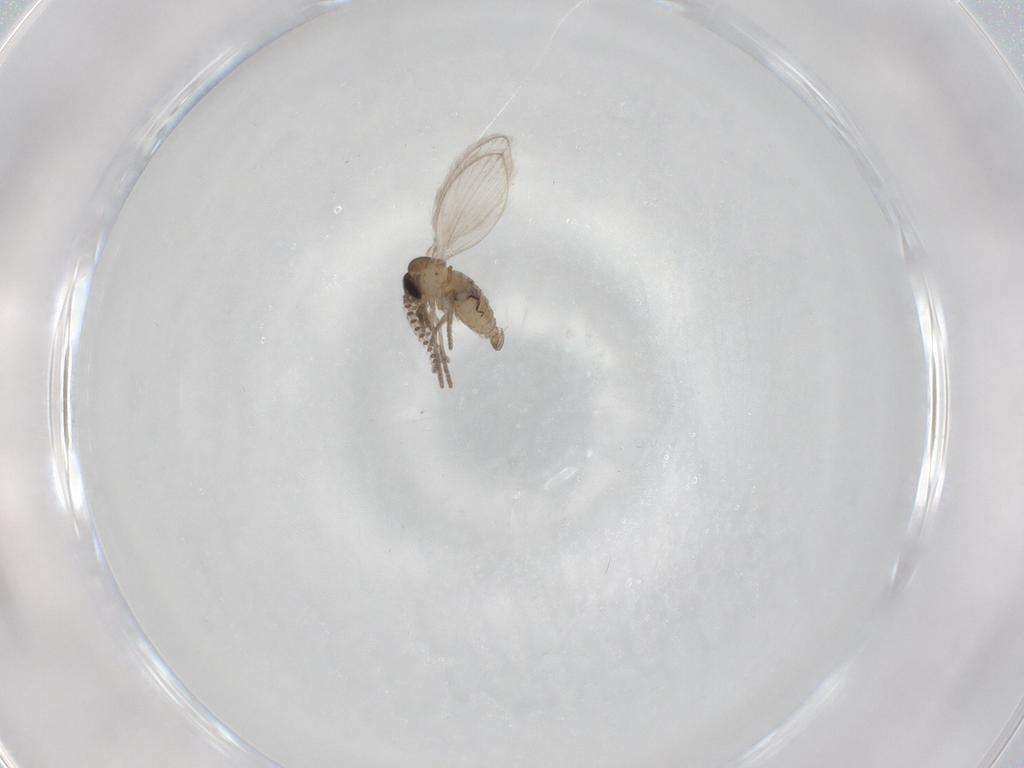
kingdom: Animalia
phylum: Arthropoda
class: Insecta
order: Diptera
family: Psychodidae
